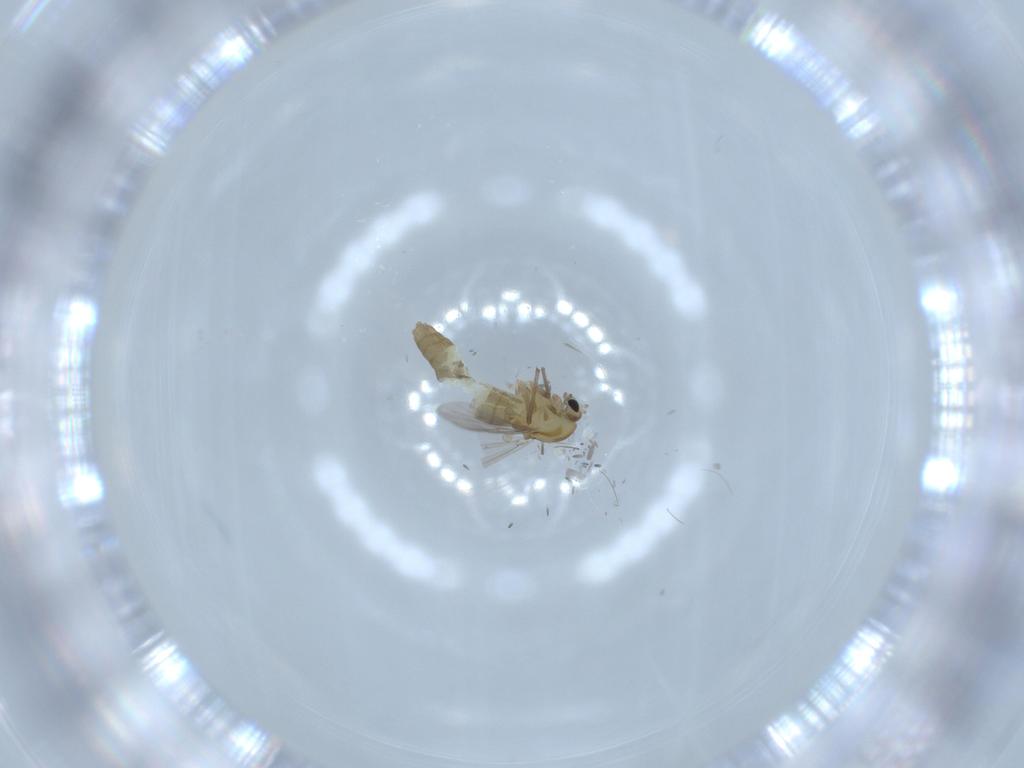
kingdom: Animalia
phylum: Arthropoda
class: Insecta
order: Diptera
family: Chironomidae
